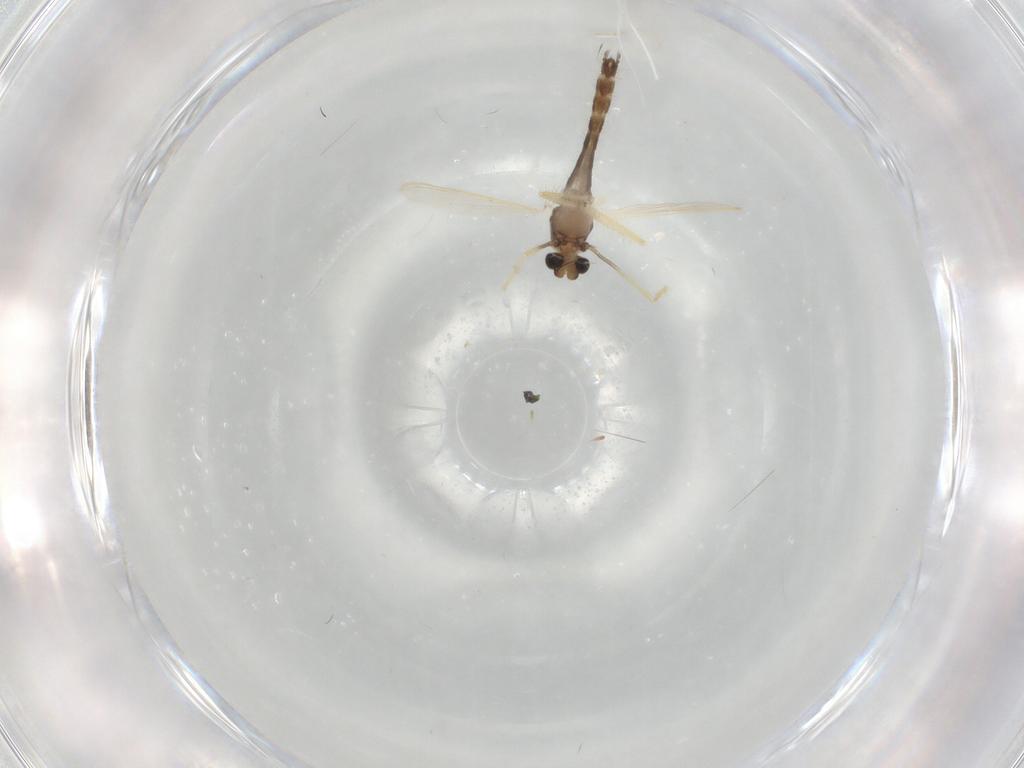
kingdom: Animalia
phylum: Arthropoda
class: Insecta
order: Diptera
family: Chironomidae
